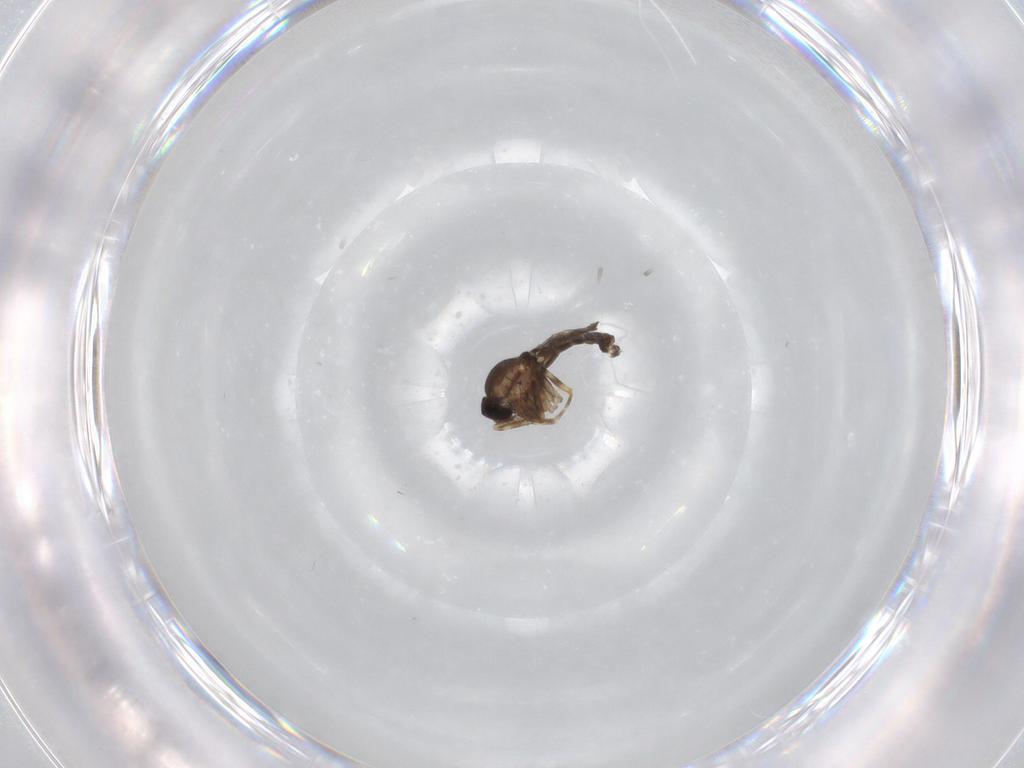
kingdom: Animalia
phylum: Arthropoda
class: Insecta
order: Diptera
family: Ceratopogonidae
